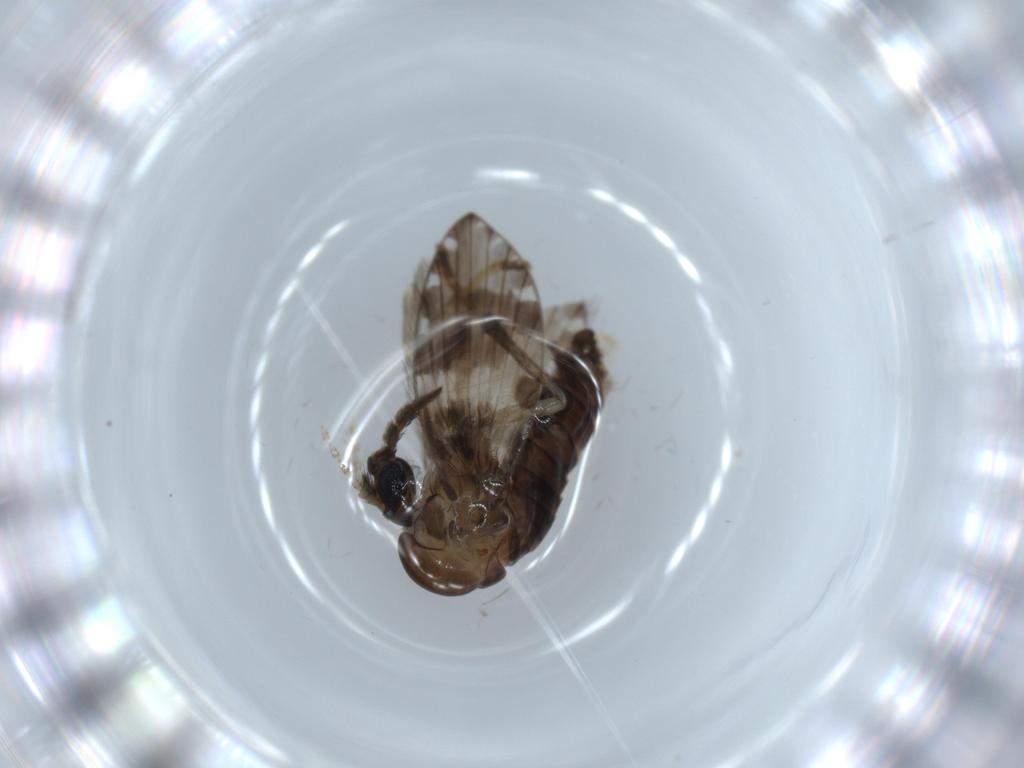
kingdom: Animalia
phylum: Arthropoda
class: Insecta
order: Diptera
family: Psychodidae
